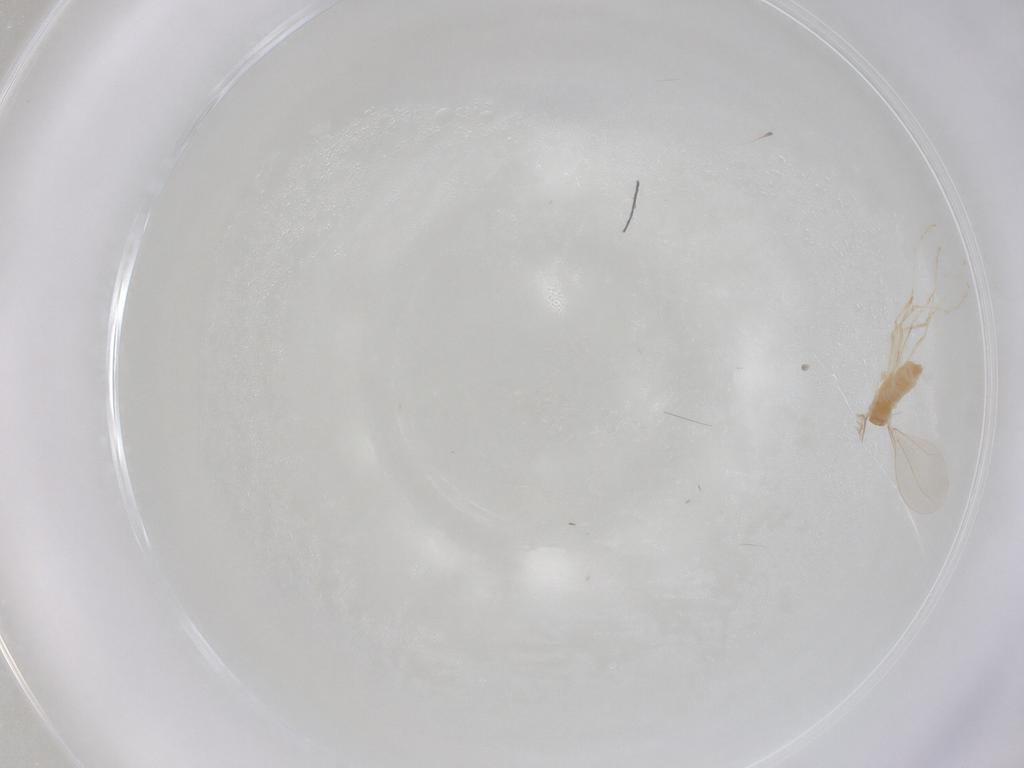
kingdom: Animalia
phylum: Arthropoda
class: Insecta
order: Diptera
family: Cecidomyiidae
